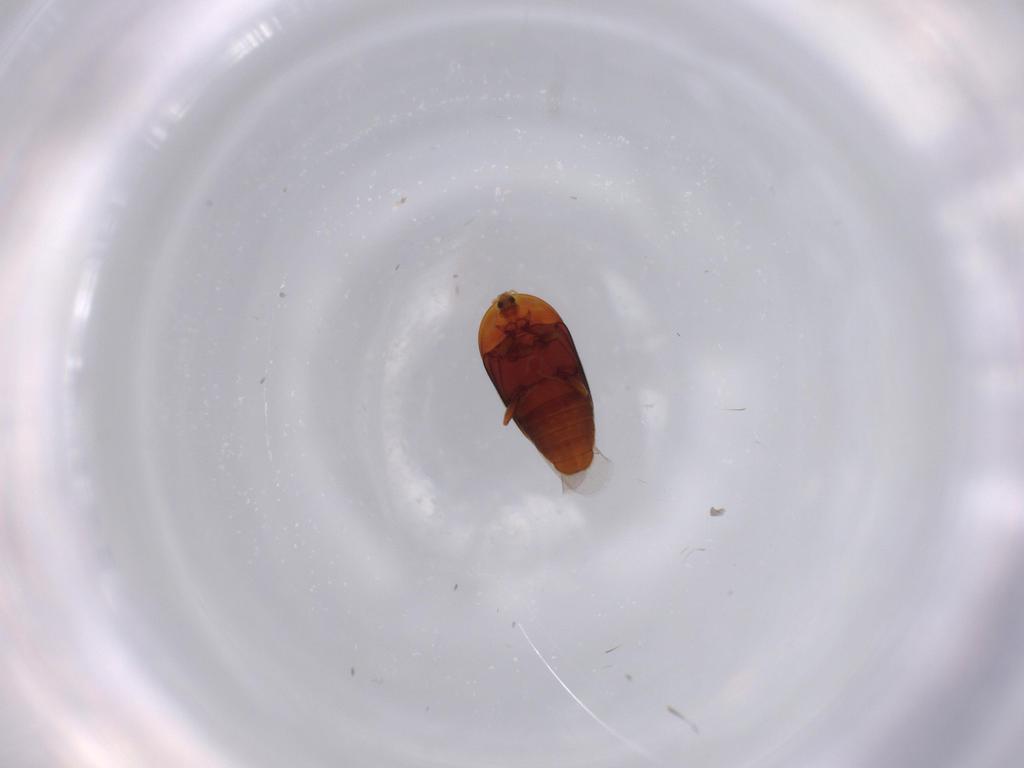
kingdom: Animalia
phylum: Arthropoda
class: Insecta
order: Coleoptera
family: Corylophidae
